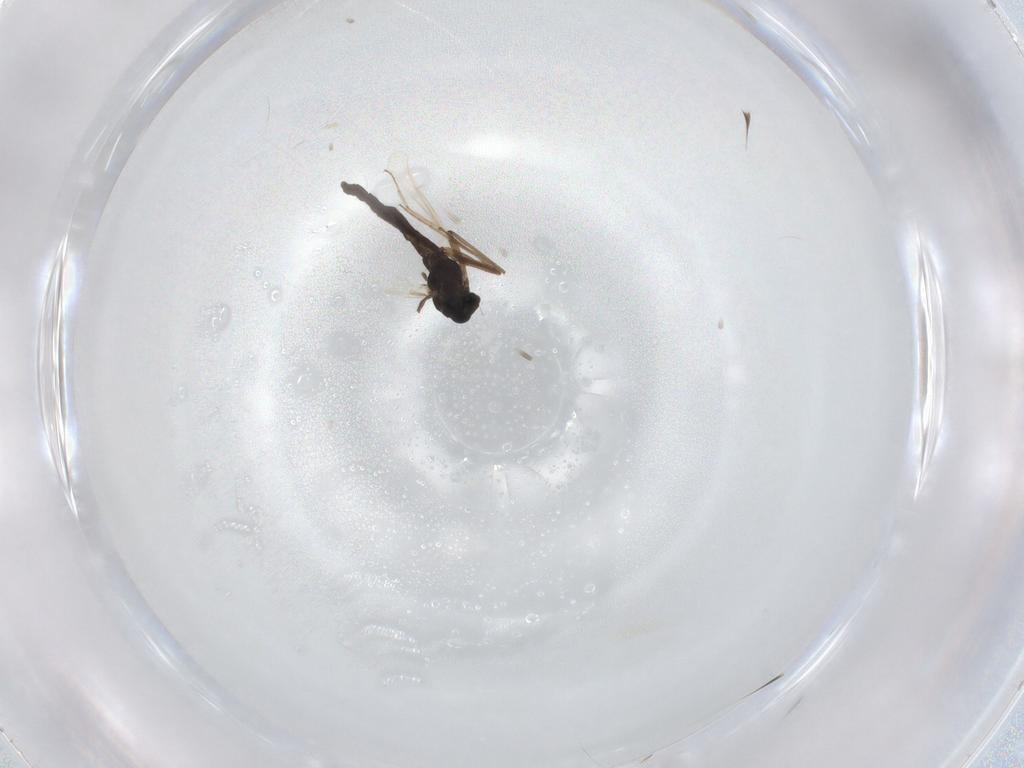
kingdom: Animalia
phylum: Arthropoda
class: Insecta
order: Diptera
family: Chironomidae
